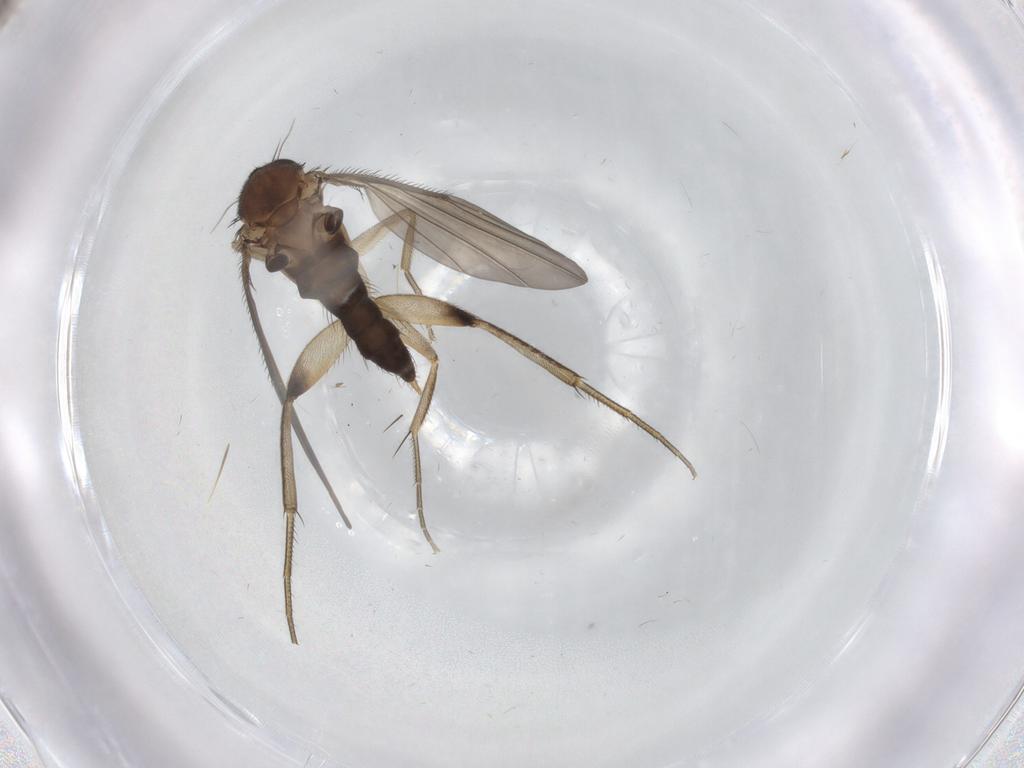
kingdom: Animalia
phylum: Arthropoda
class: Insecta
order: Diptera
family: Phoridae
